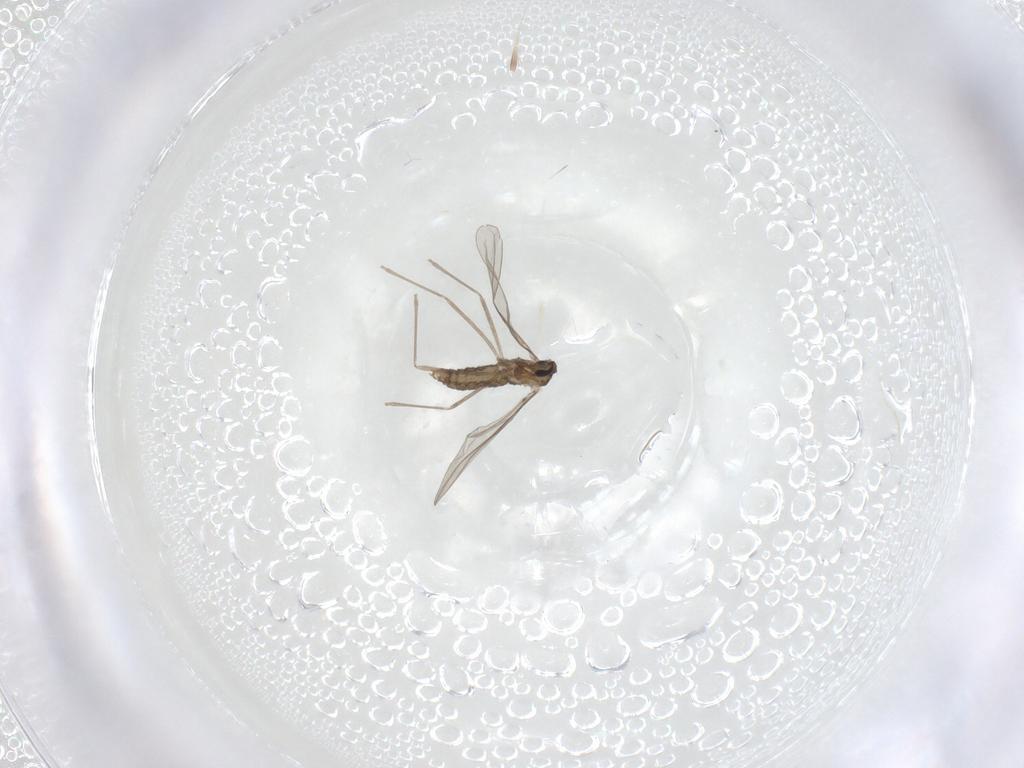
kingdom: Animalia
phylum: Arthropoda
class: Insecta
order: Diptera
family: Cecidomyiidae
